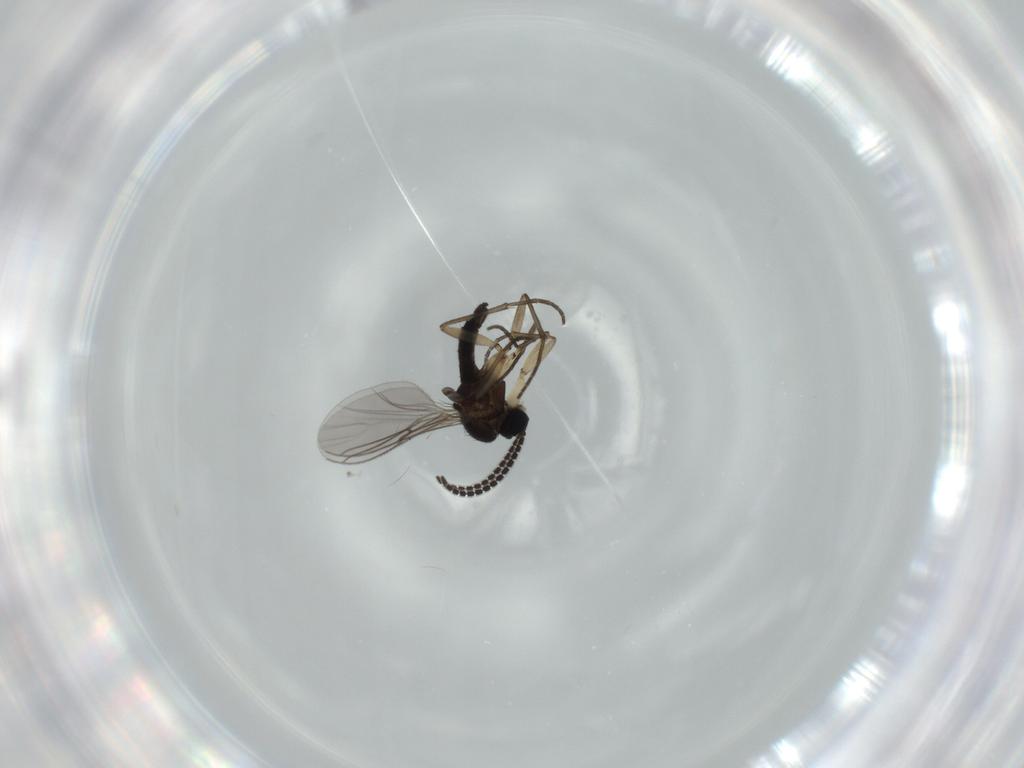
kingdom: Animalia
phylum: Arthropoda
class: Insecta
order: Diptera
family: Sciaridae
